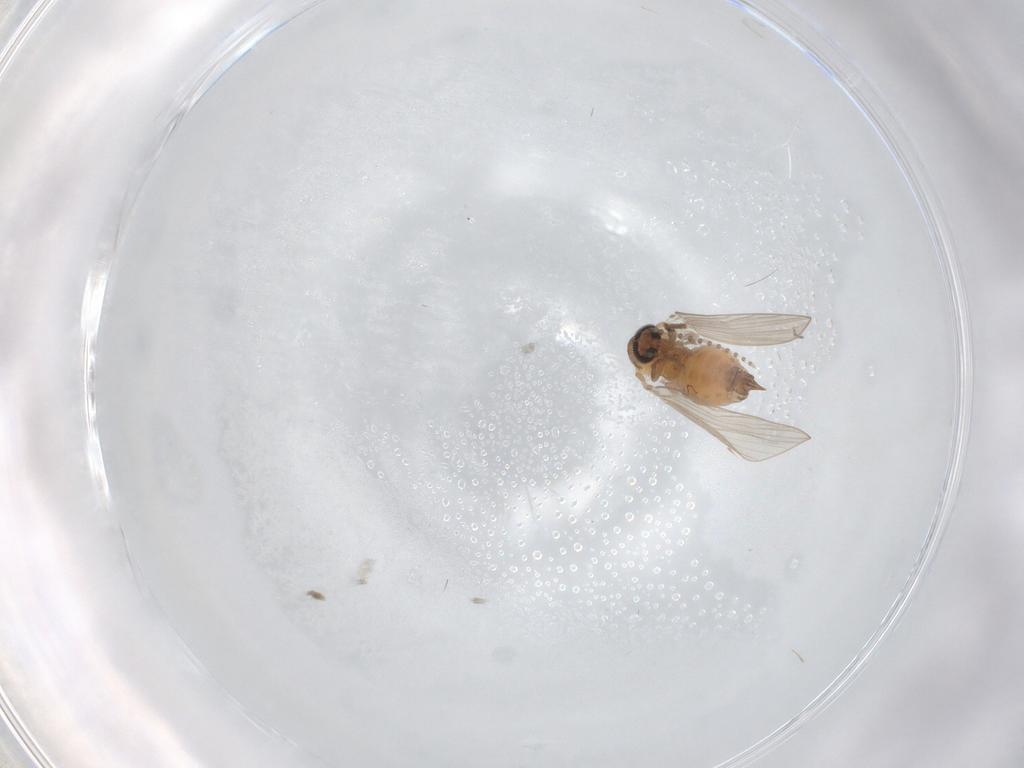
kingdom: Animalia
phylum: Arthropoda
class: Insecta
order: Diptera
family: Psychodidae
